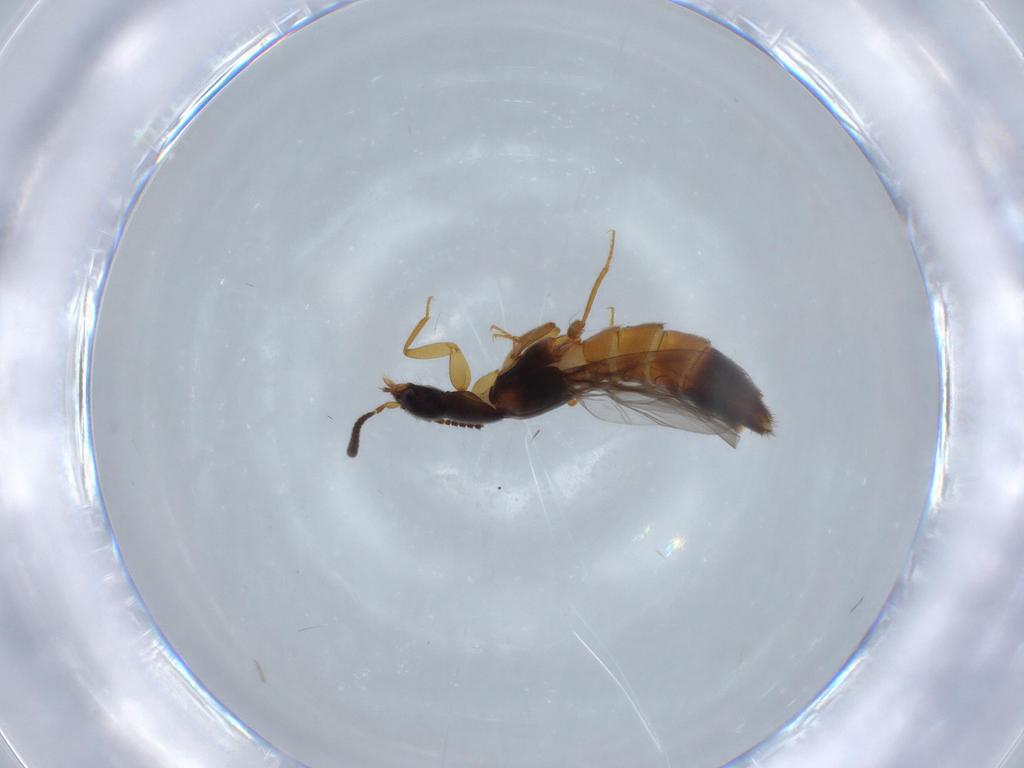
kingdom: Animalia
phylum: Arthropoda
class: Insecta
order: Coleoptera
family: Staphylinidae
